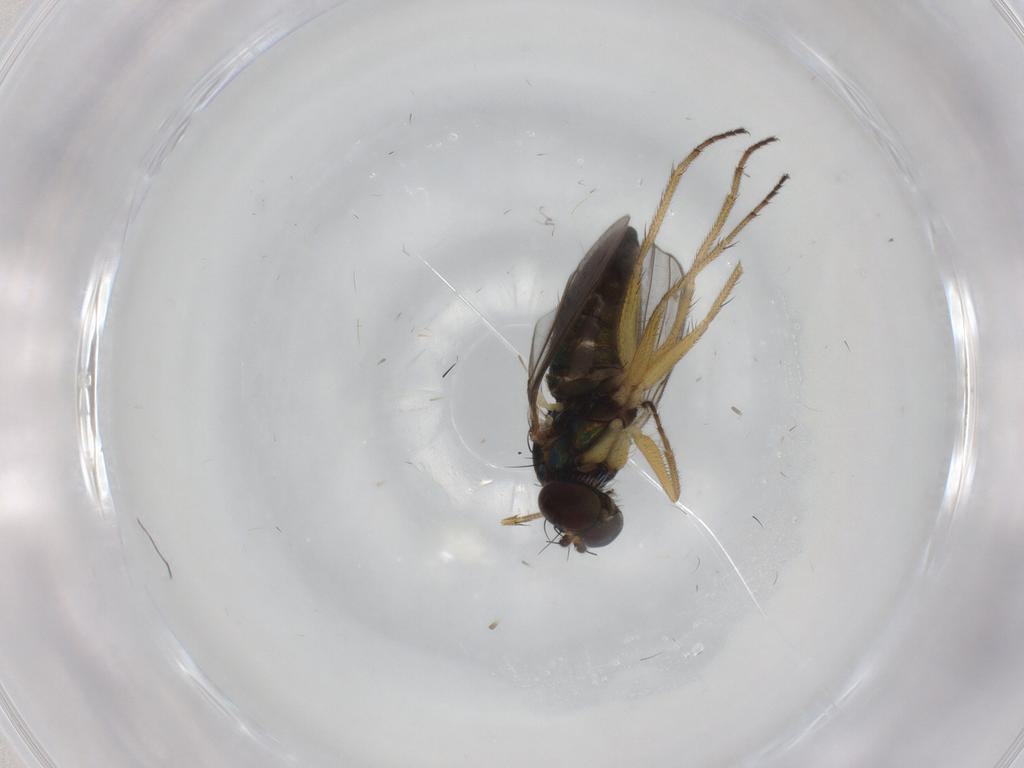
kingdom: Animalia
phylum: Arthropoda
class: Insecta
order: Diptera
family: Dolichopodidae
